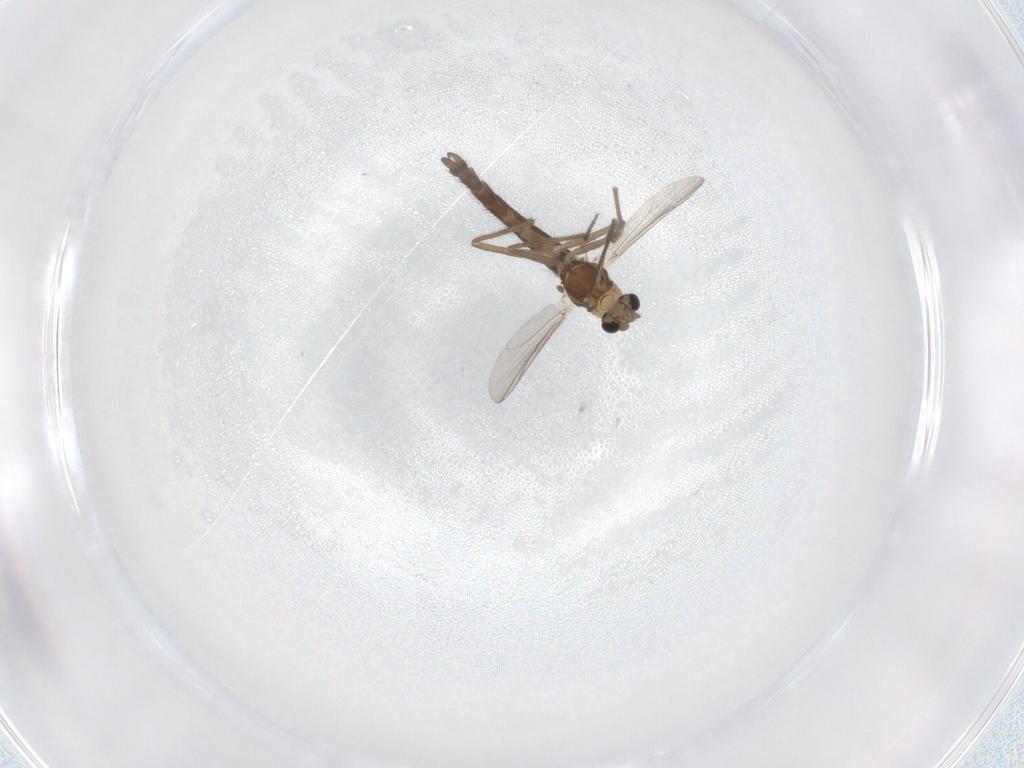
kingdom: Animalia
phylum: Arthropoda
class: Insecta
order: Diptera
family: Chironomidae
